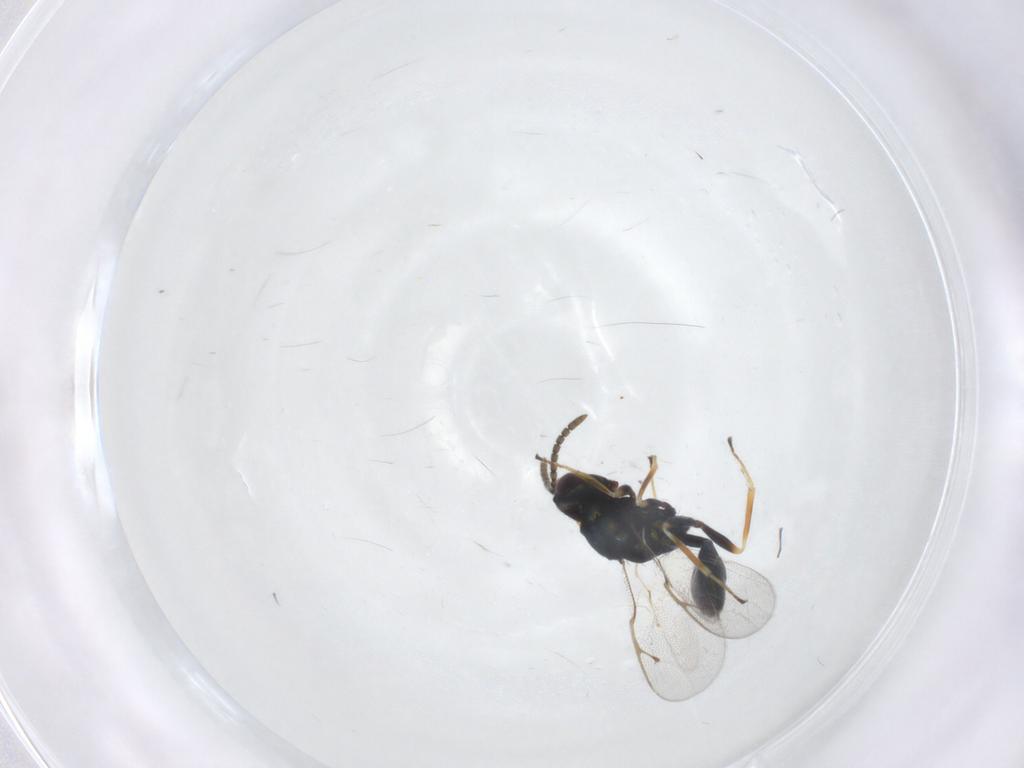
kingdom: Animalia
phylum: Arthropoda
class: Insecta
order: Hymenoptera
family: Pteromalidae
